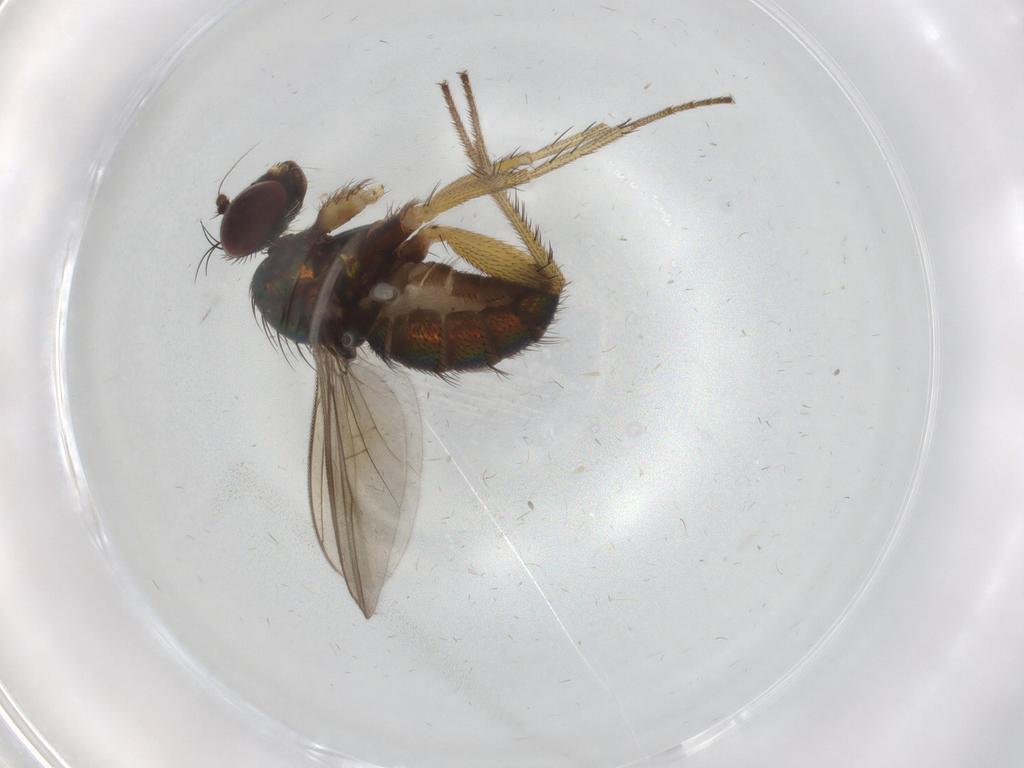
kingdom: Animalia
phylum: Arthropoda
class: Insecta
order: Diptera
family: Dolichopodidae
